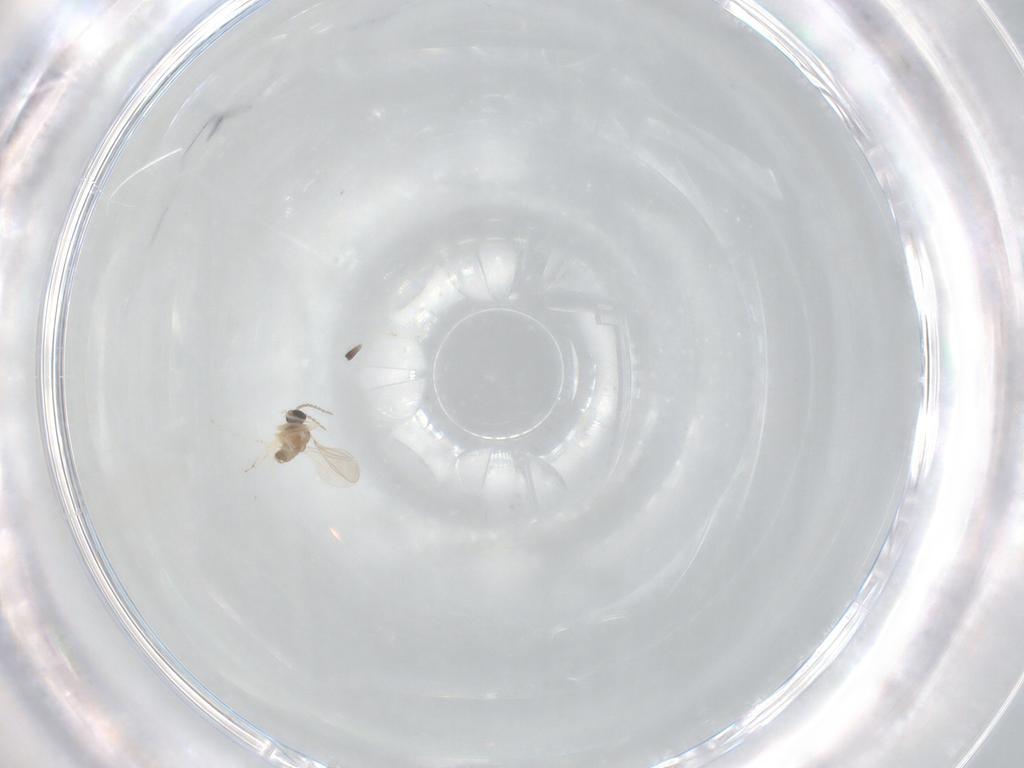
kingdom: Animalia
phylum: Arthropoda
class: Insecta
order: Diptera
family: Cecidomyiidae
